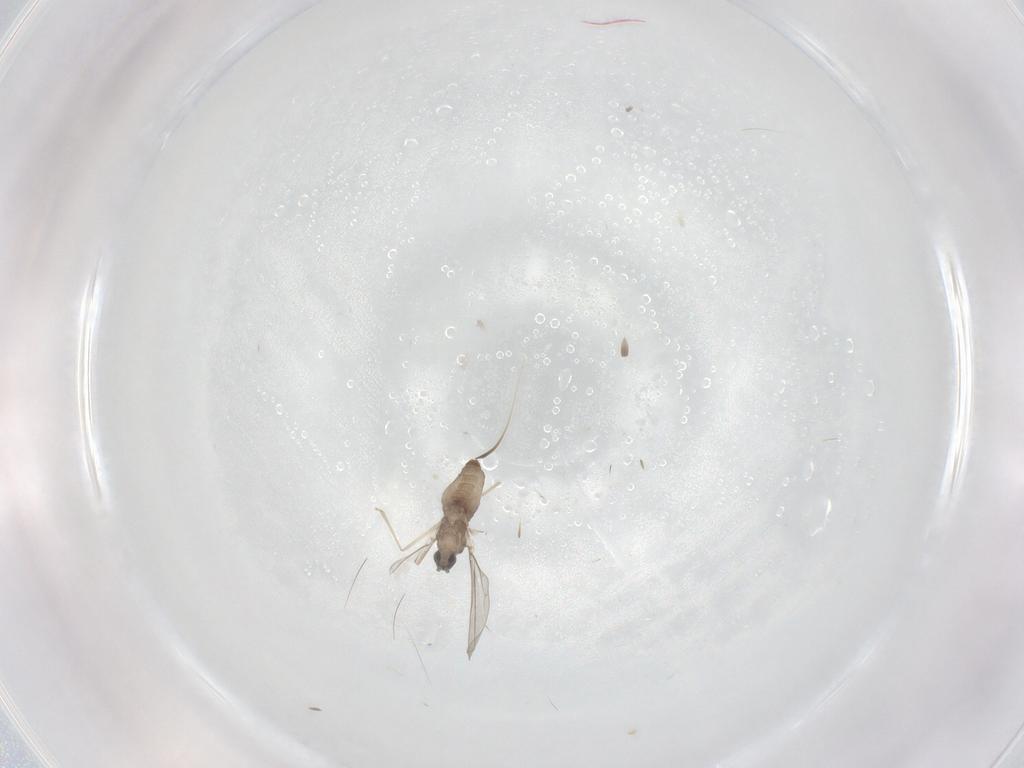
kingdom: Animalia
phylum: Arthropoda
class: Insecta
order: Diptera
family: Cecidomyiidae
